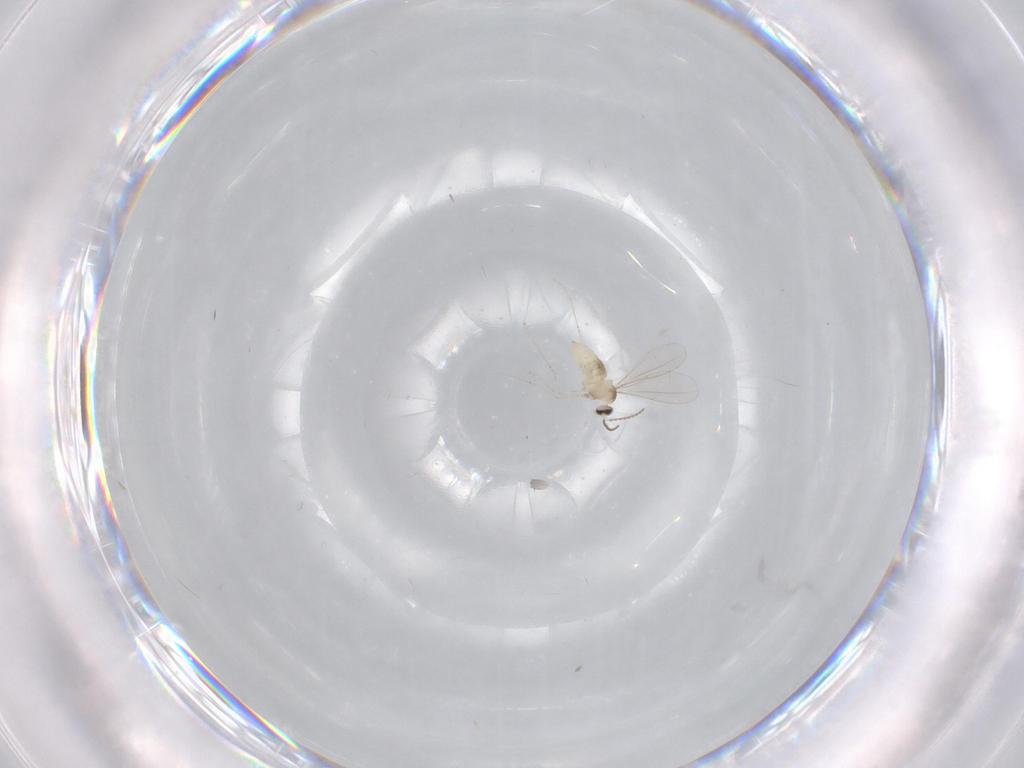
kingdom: Animalia
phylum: Arthropoda
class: Insecta
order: Diptera
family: Cecidomyiidae
